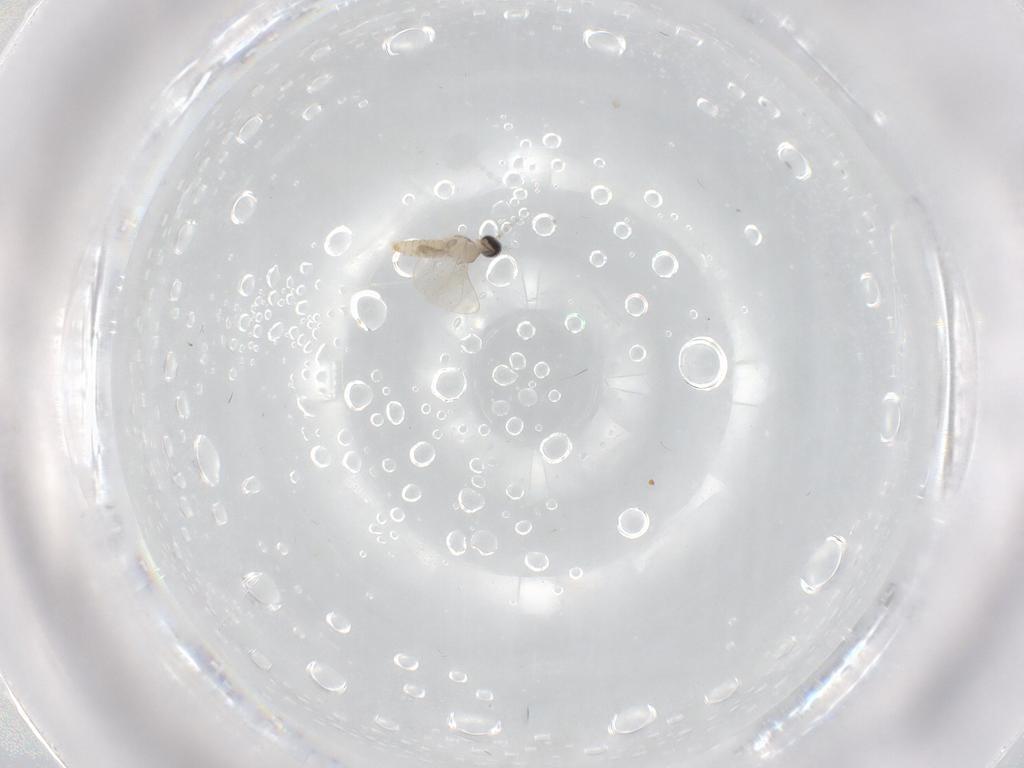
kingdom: Animalia
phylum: Arthropoda
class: Insecta
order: Diptera
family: Cecidomyiidae
